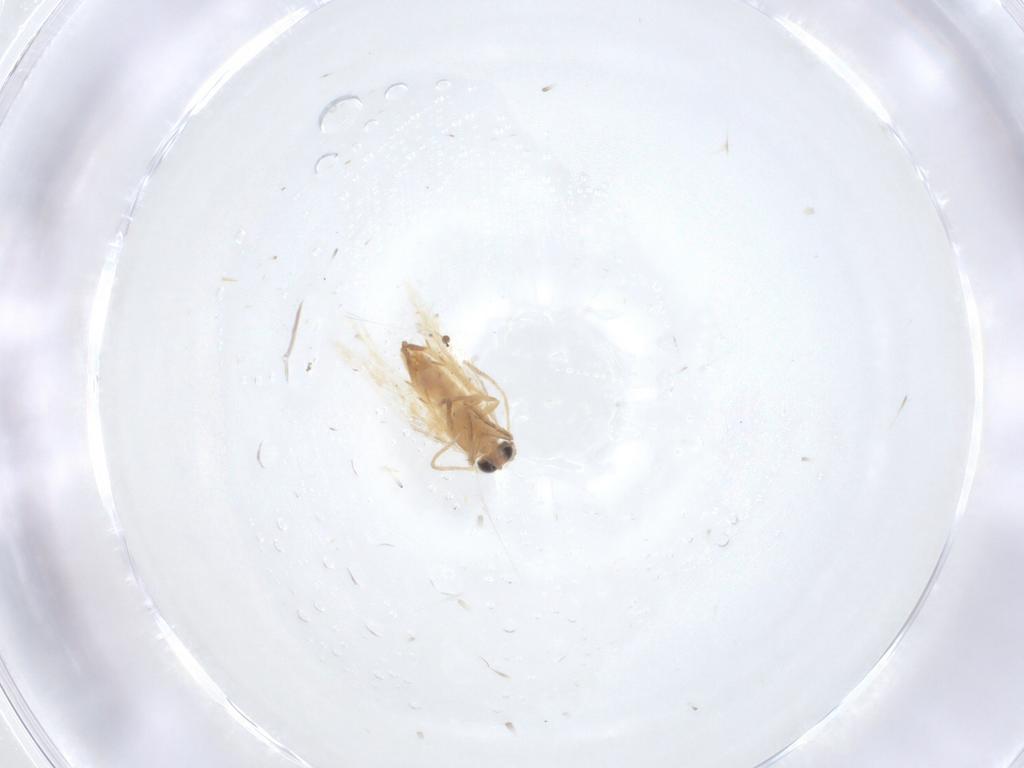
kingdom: Animalia
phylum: Arthropoda
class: Insecta
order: Lepidoptera
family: Nepticulidae
